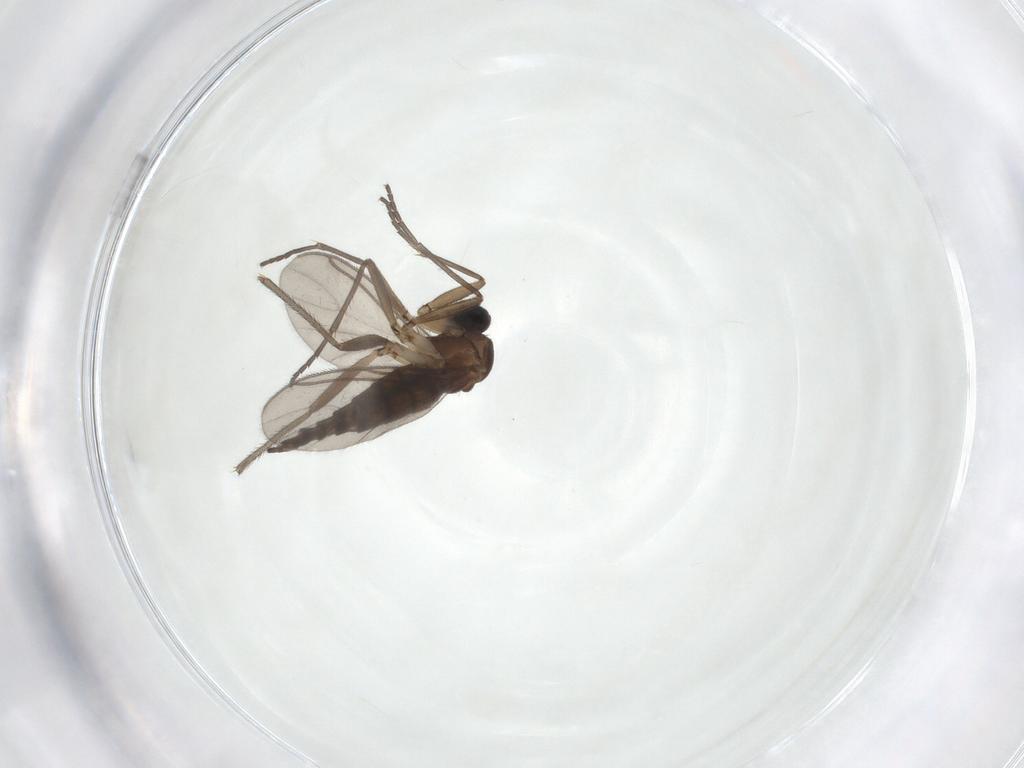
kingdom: Animalia
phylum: Arthropoda
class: Insecta
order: Diptera
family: Sciaridae
